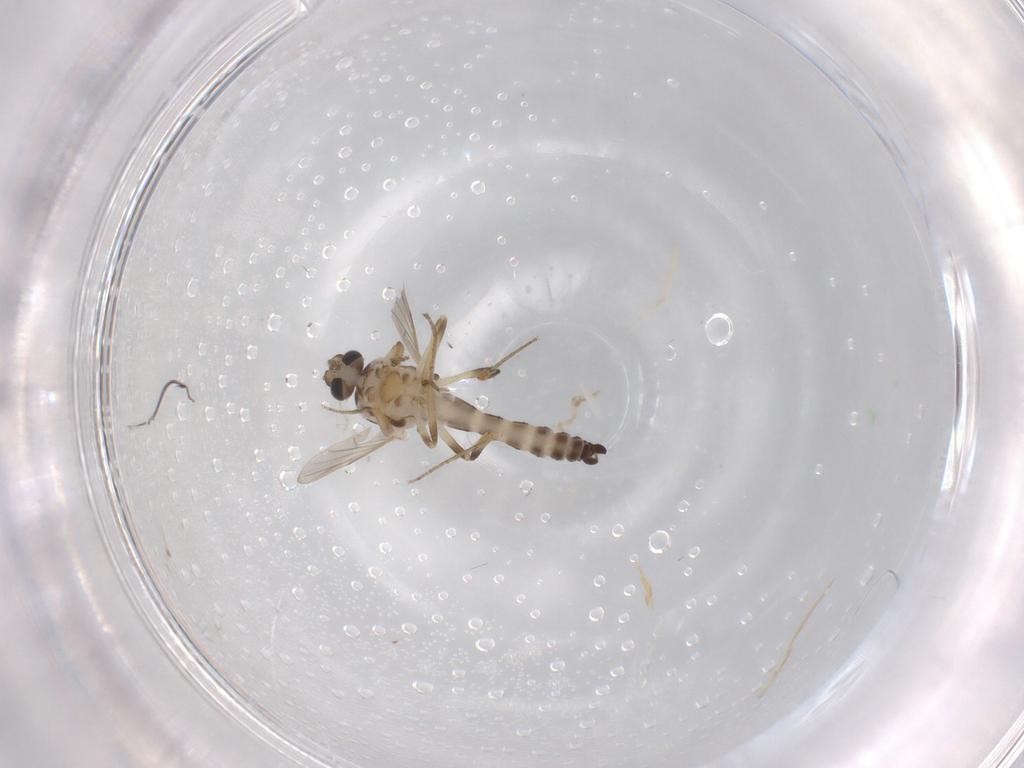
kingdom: Animalia
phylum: Arthropoda
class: Insecta
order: Diptera
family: Ceratopogonidae
